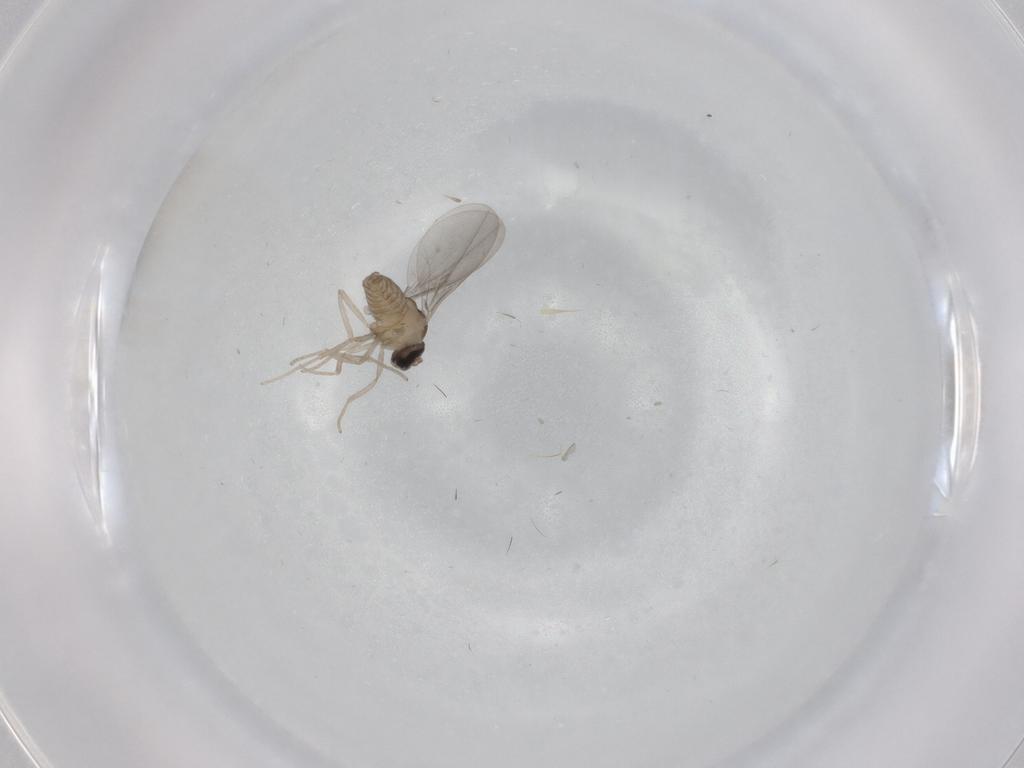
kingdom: Animalia
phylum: Arthropoda
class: Insecta
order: Diptera
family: Cecidomyiidae
